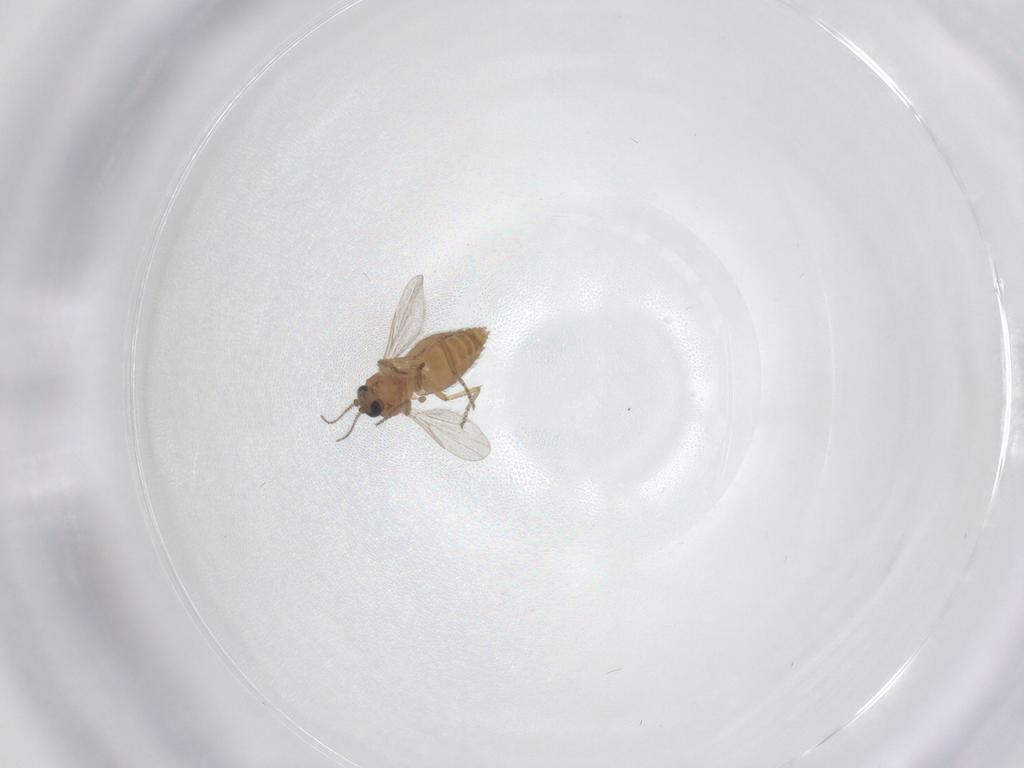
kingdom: Animalia
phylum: Arthropoda
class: Insecta
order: Diptera
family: Ceratopogonidae
